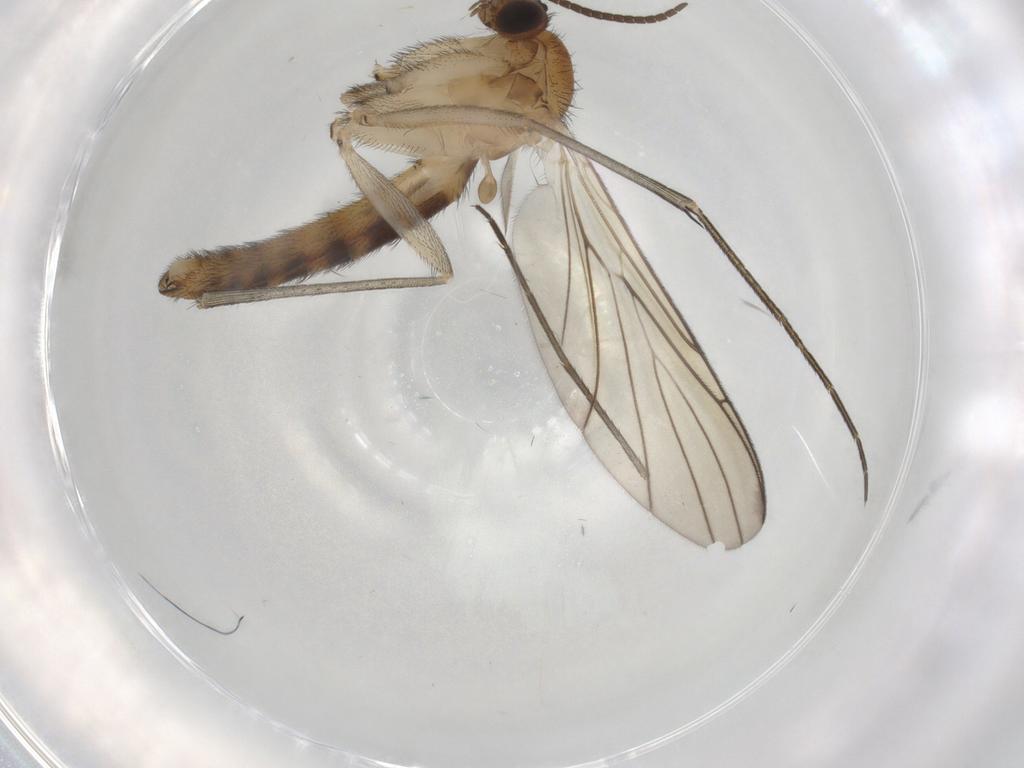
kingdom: Animalia
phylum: Arthropoda
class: Insecta
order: Diptera
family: Keroplatidae
